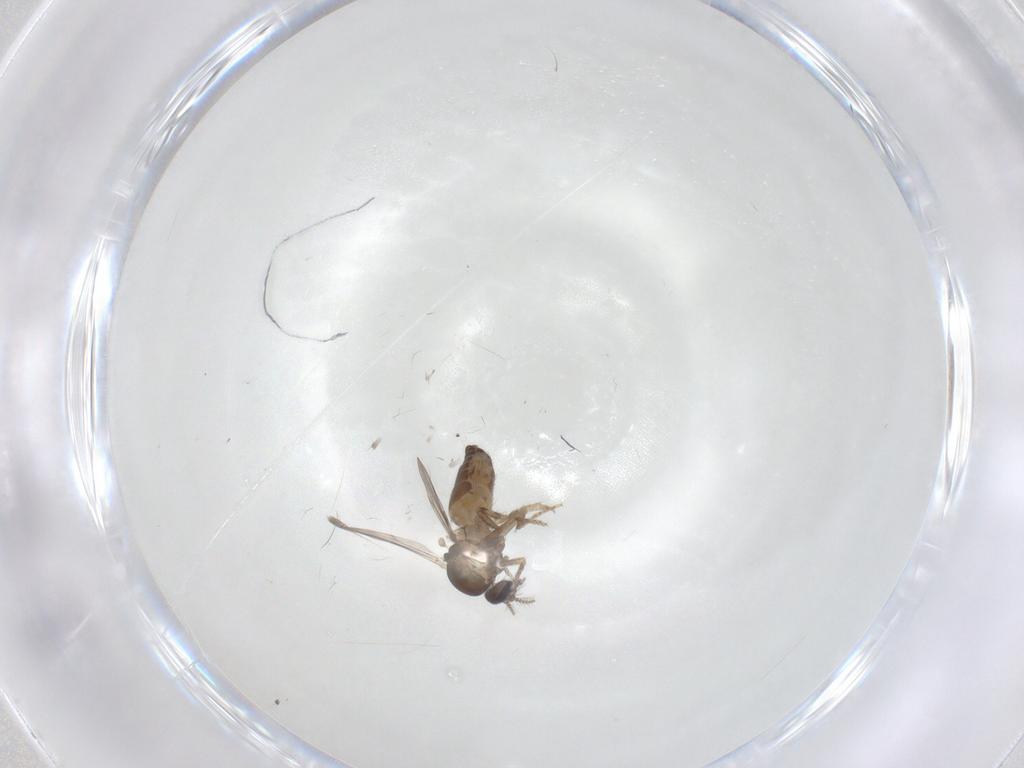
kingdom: Animalia
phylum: Arthropoda
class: Insecta
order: Diptera
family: Ceratopogonidae
